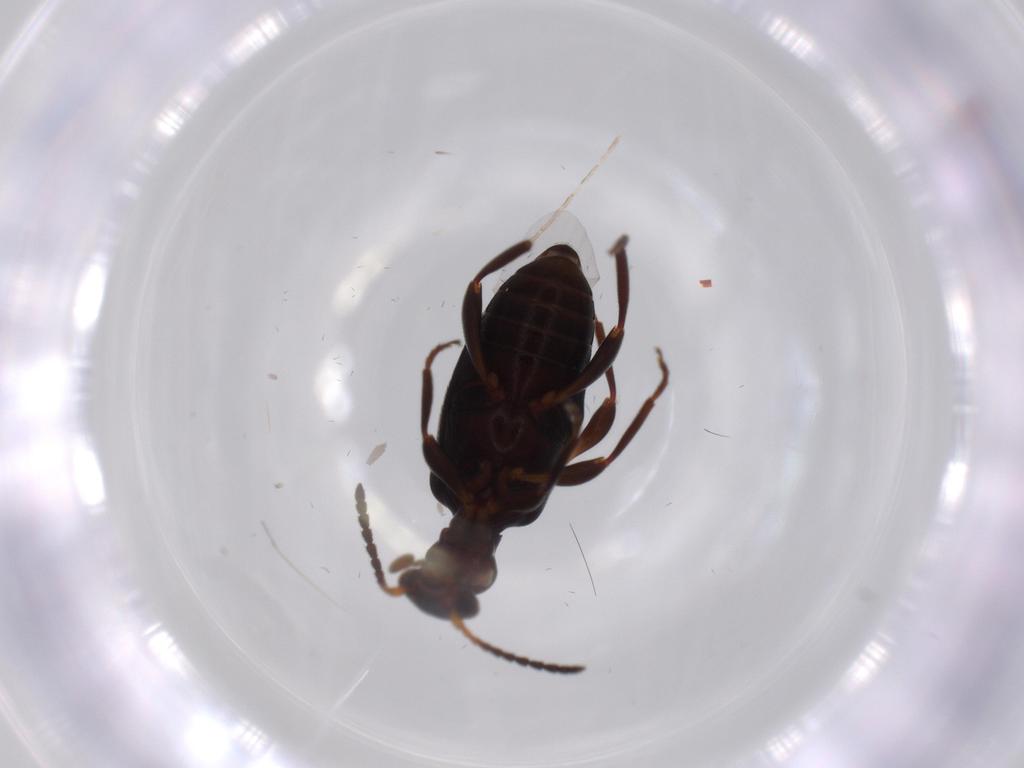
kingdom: Animalia
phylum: Arthropoda
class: Insecta
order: Coleoptera
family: Anthicidae
